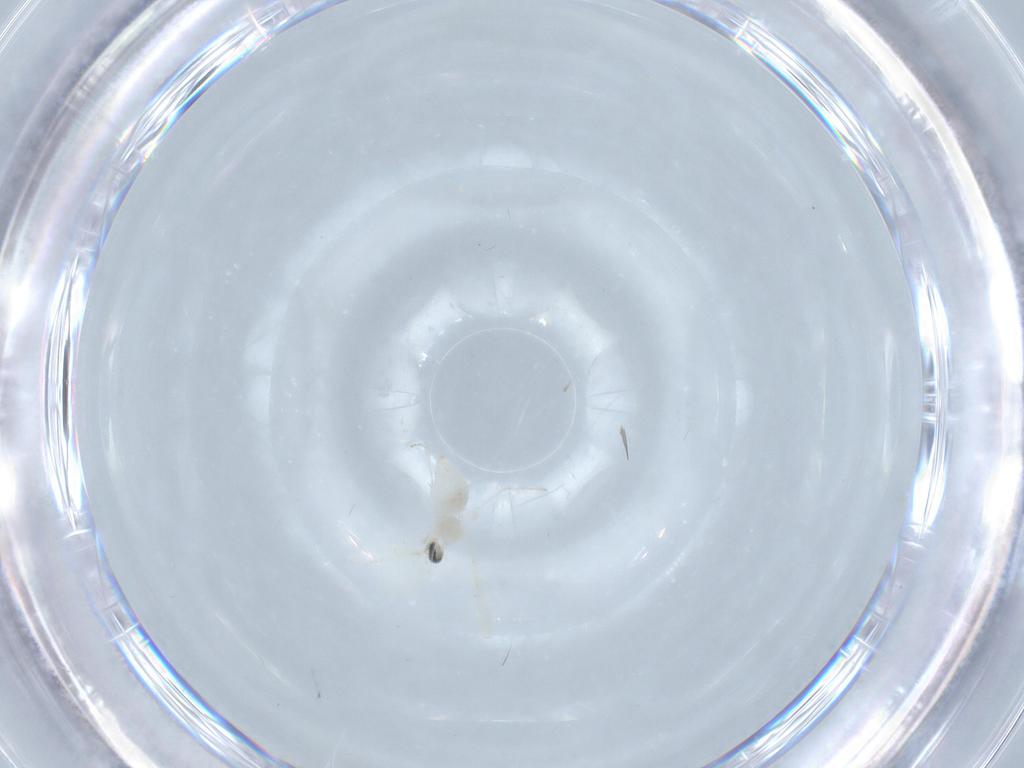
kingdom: Animalia
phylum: Arthropoda
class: Insecta
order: Diptera
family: Cecidomyiidae
